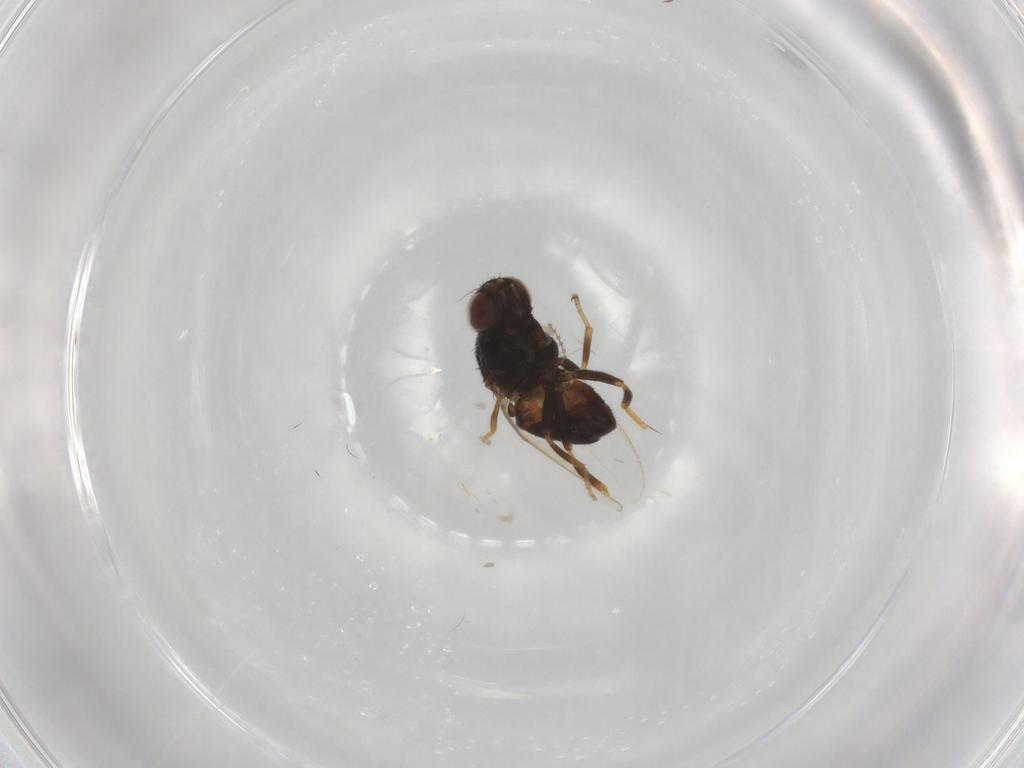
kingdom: Animalia
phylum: Arthropoda
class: Insecta
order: Diptera
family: Chloropidae
